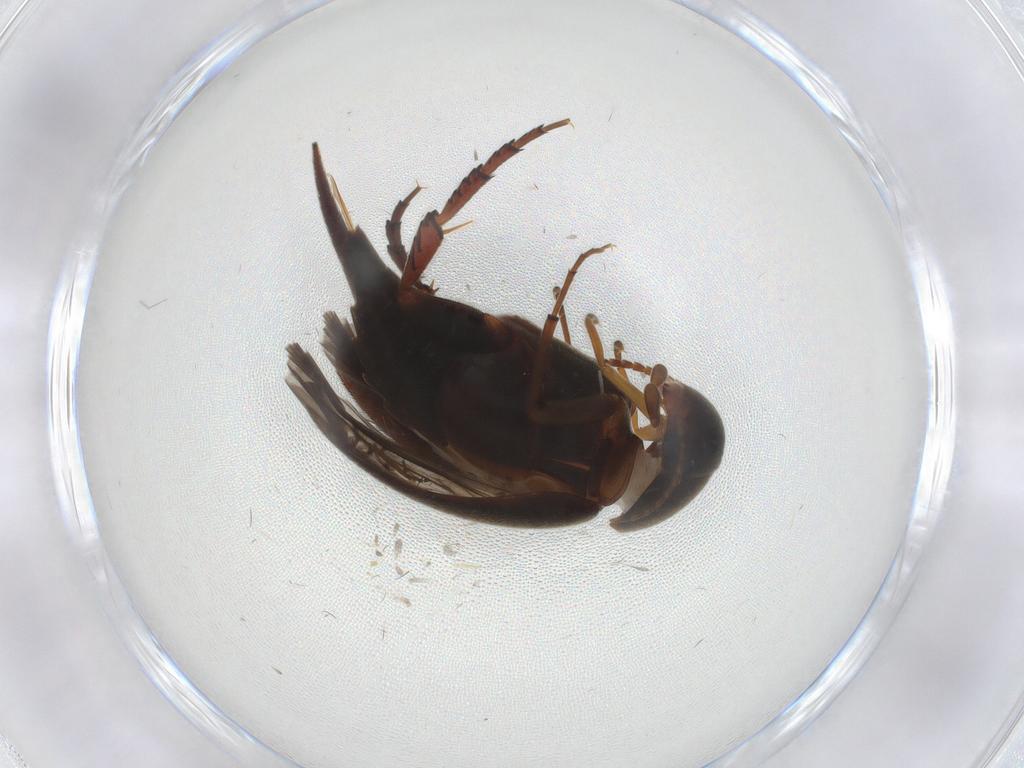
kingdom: Animalia
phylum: Arthropoda
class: Insecta
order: Coleoptera
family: Mordellidae
